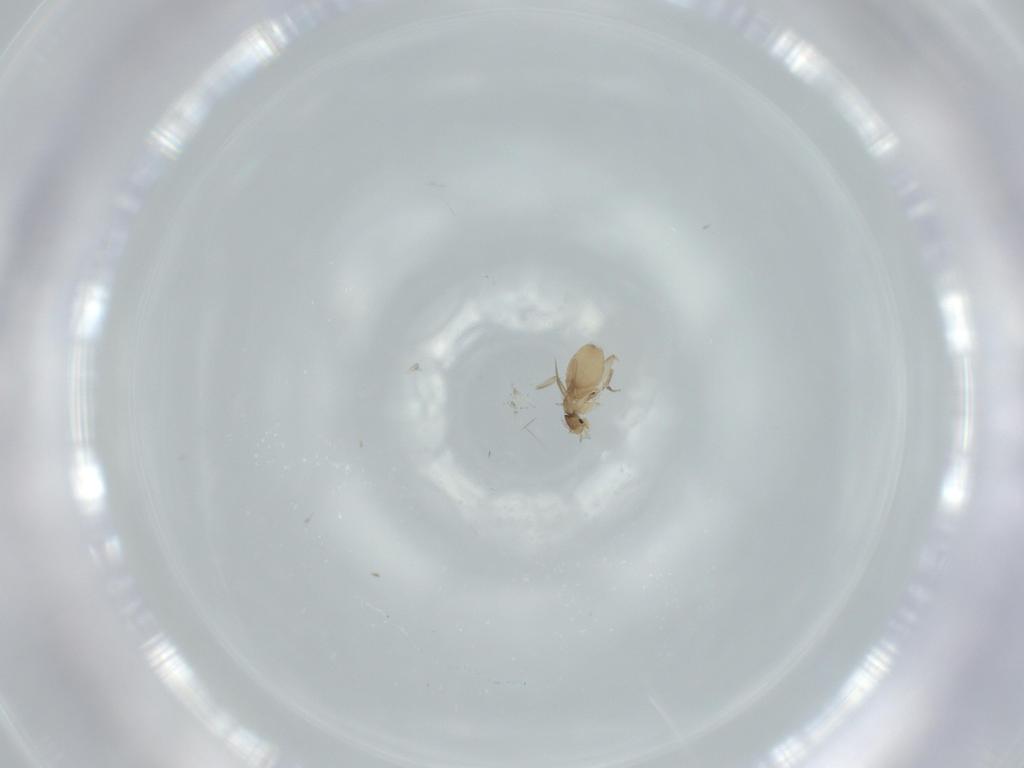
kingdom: Animalia
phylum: Arthropoda
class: Insecta
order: Diptera
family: Phoridae
